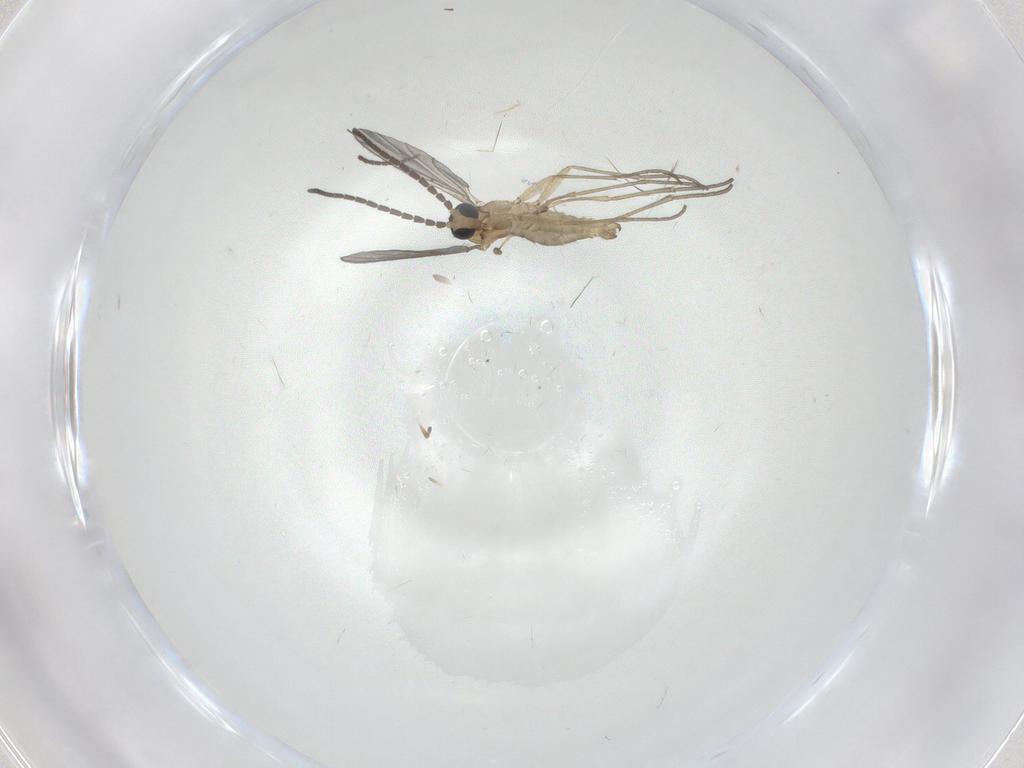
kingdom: Animalia
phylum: Arthropoda
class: Insecta
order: Diptera
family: Sciaridae
